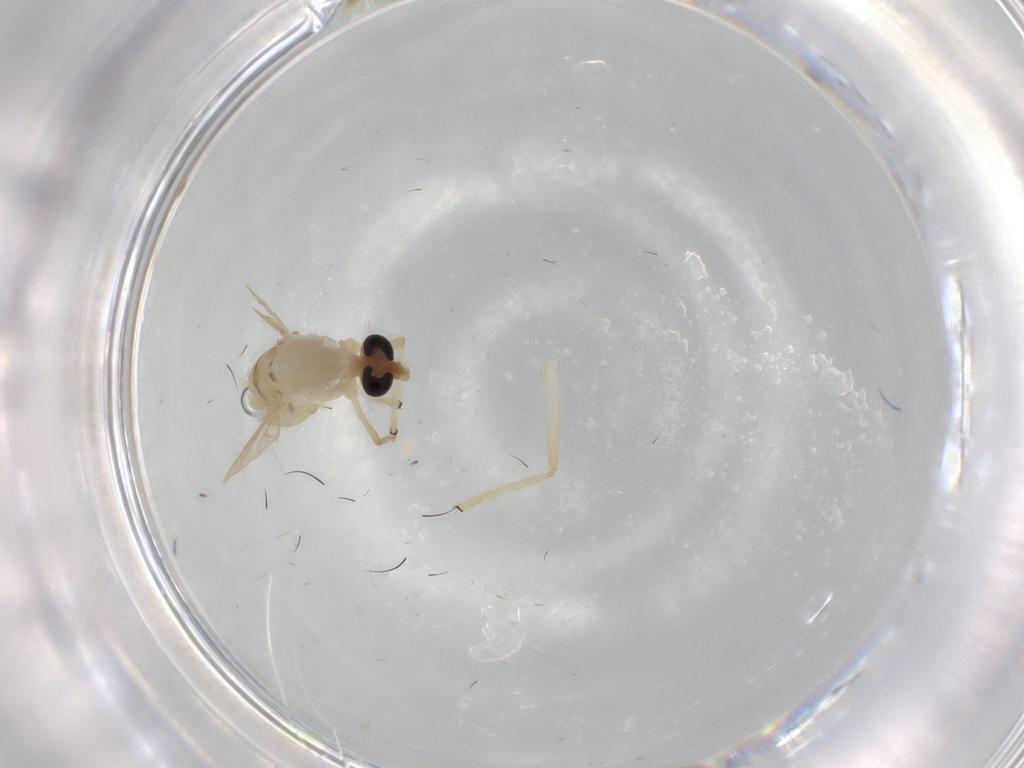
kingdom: Animalia
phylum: Arthropoda
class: Insecta
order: Diptera
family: Chironomidae
